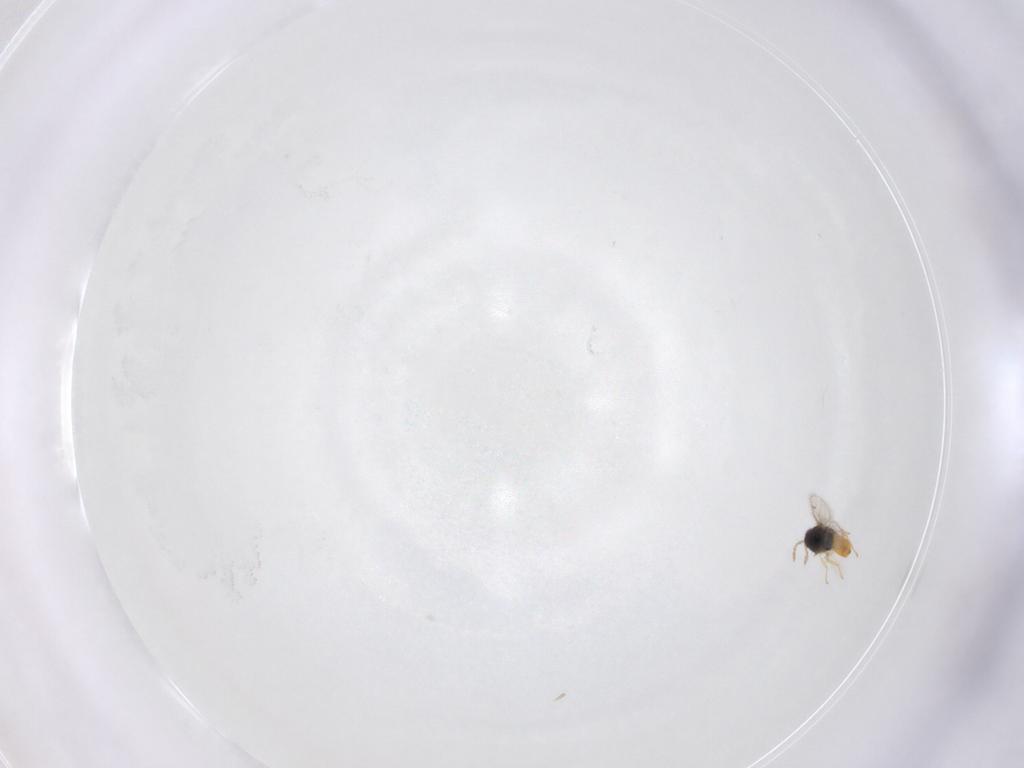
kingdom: Animalia
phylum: Arthropoda
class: Insecta
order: Hymenoptera
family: Eulophidae
